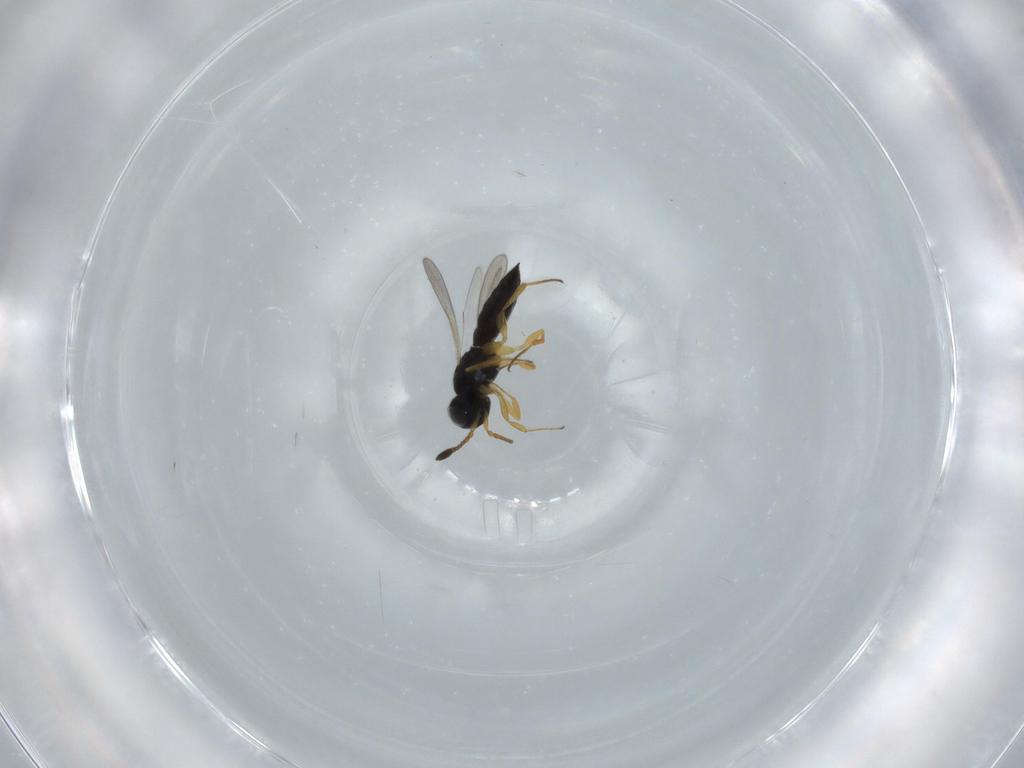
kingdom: Animalia
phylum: Arthropoda
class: Insecta
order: Hymenoptera
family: Scelionidae
